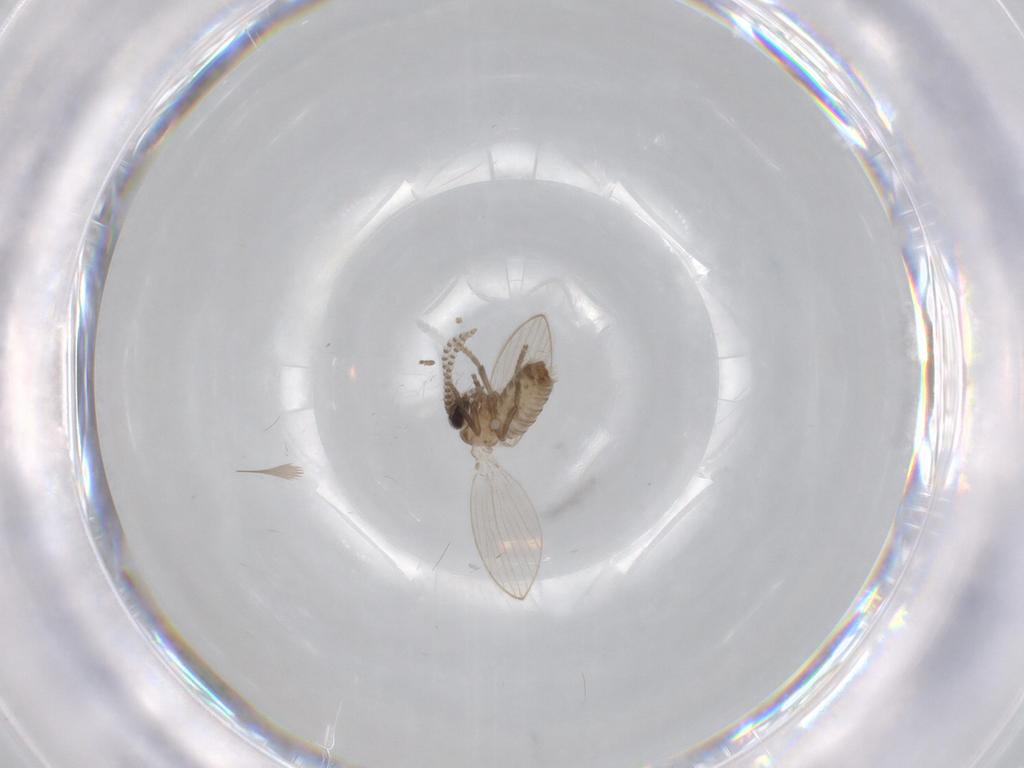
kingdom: Animalia
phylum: Arthropoda
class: Insecta
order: Diptera
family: Psychodidae
